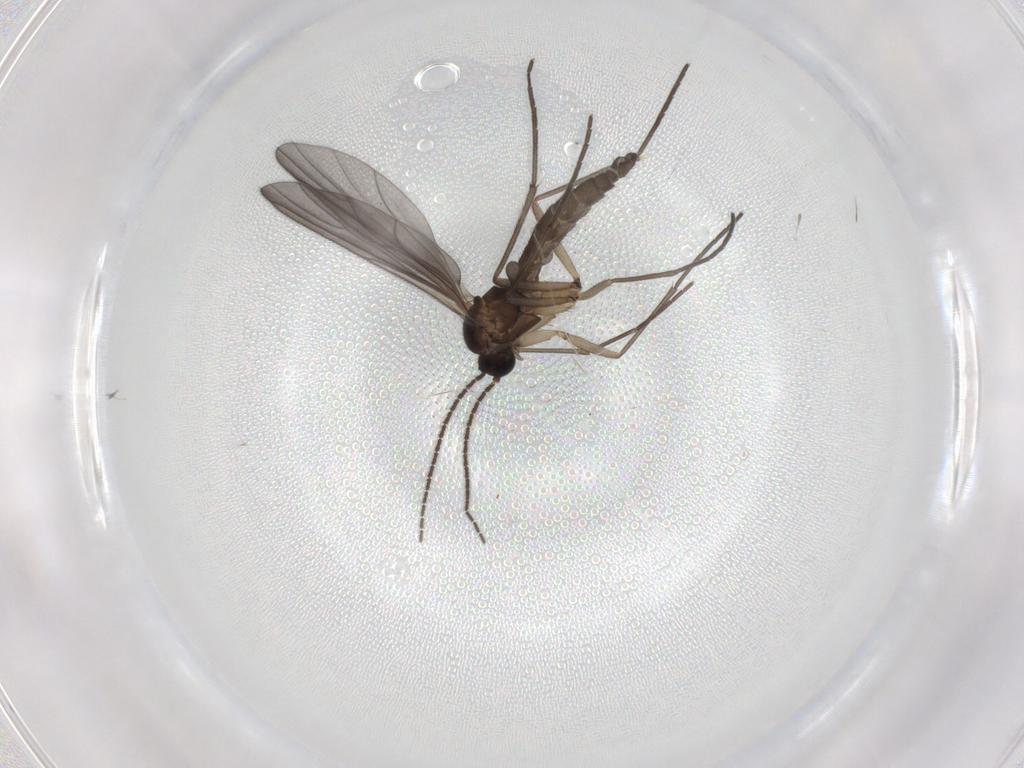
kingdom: Animalia
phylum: Arthropoda
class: Insecta
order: Diptera
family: Sciaridae
